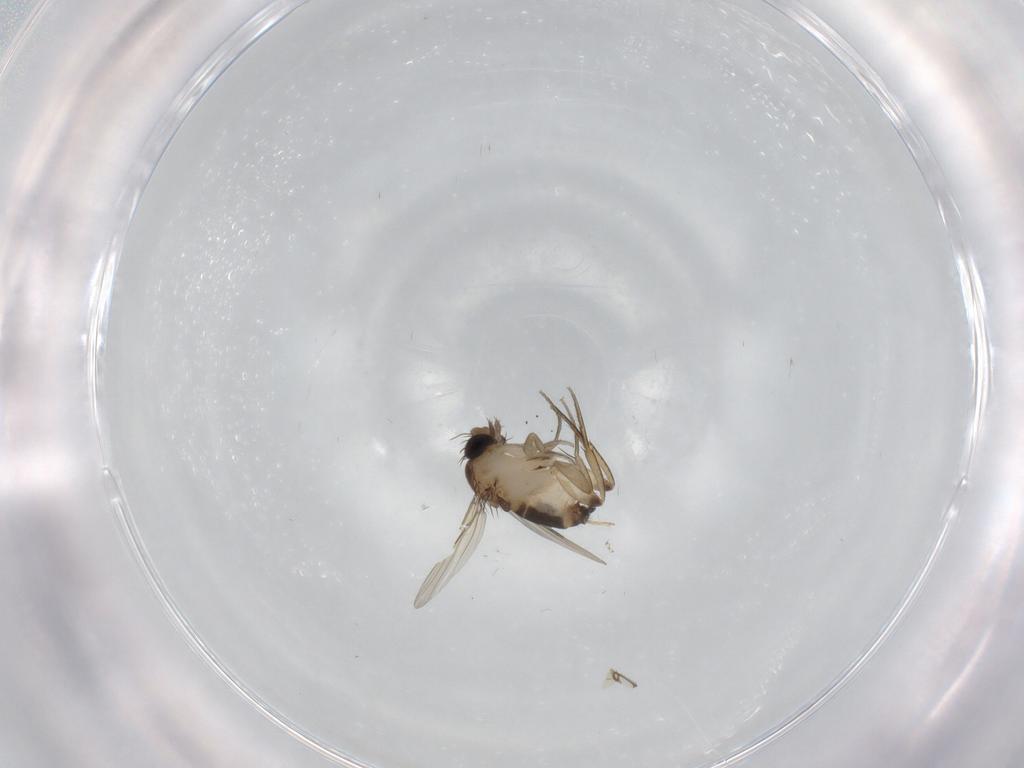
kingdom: Animalia
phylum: Arthropoda
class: Insecta
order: Diptera
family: Phoridae
